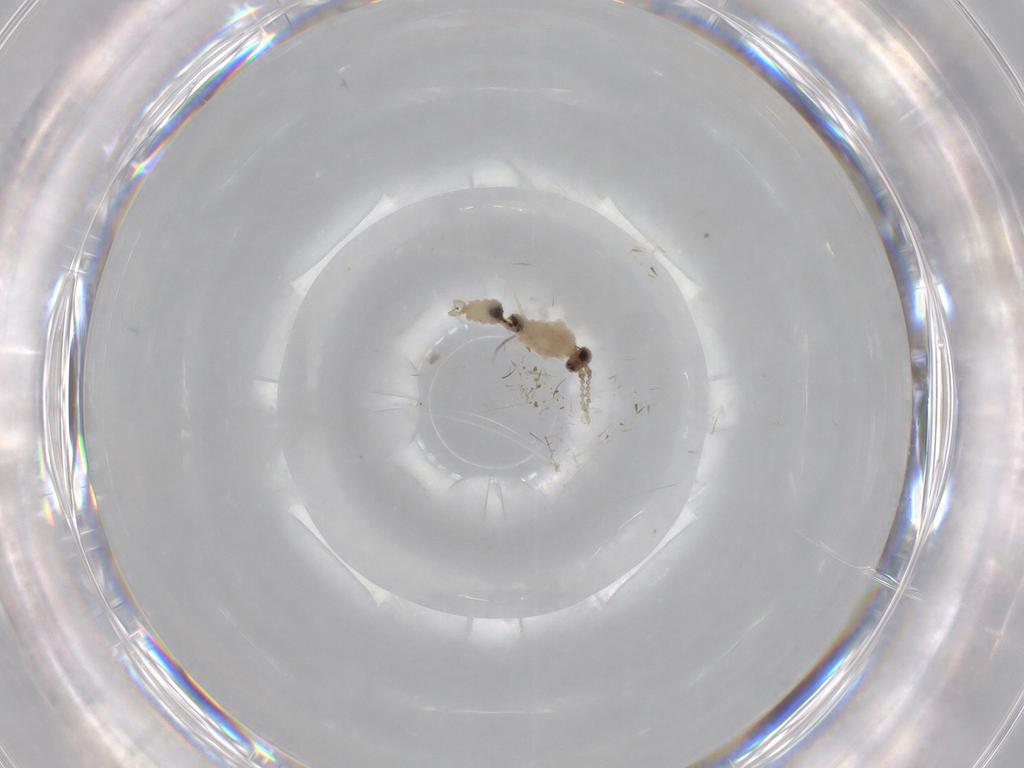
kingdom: Animalia
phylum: Arthropoda
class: Insecta
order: Diptera
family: Cecidomyiidae
